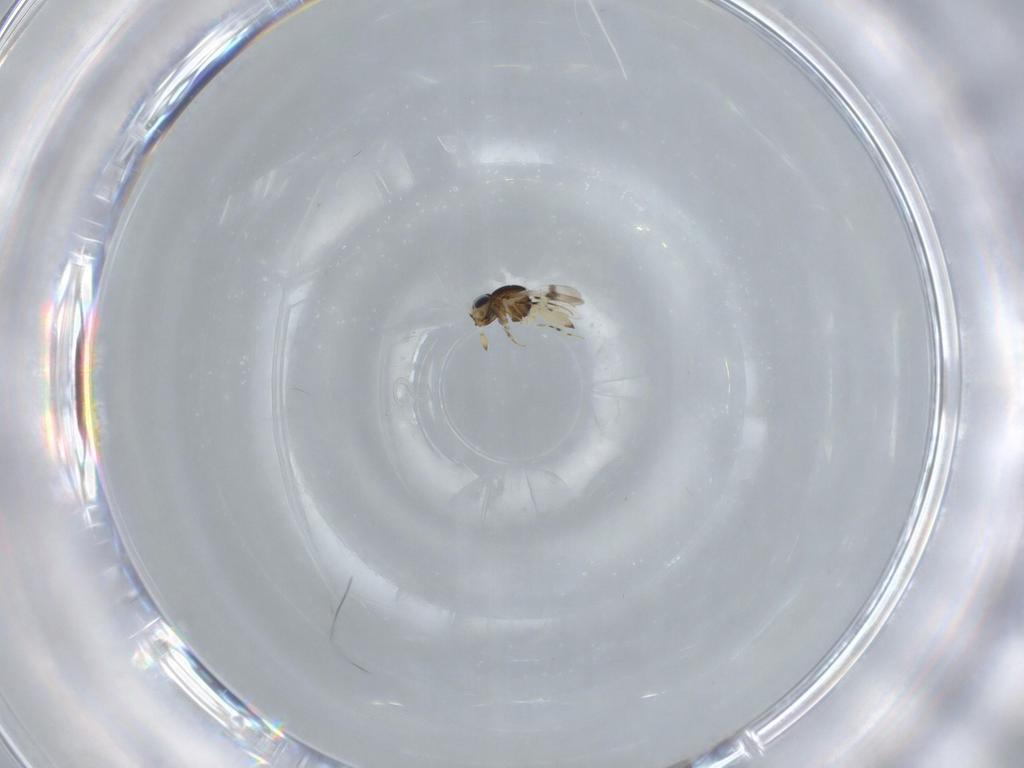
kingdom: Animalia
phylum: Arthropoda
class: Insecta
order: Hymenoptera
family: Scelionidae
